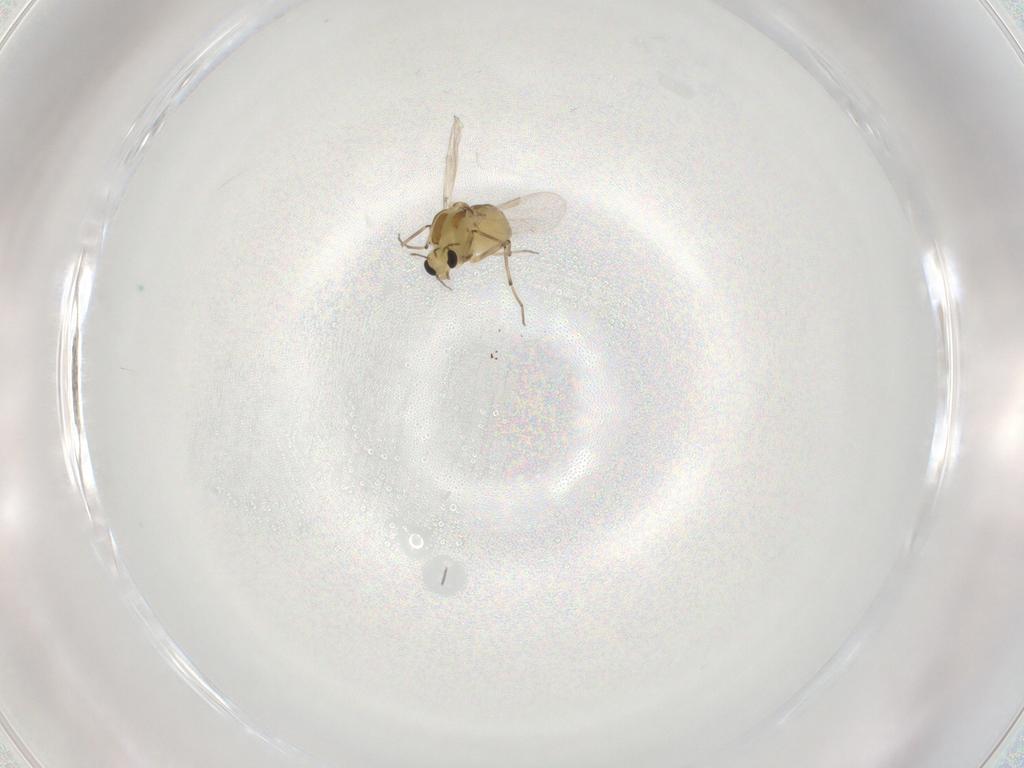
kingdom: Animalia
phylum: Arthropoda
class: Insecta
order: Diptera
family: Chironomidae
